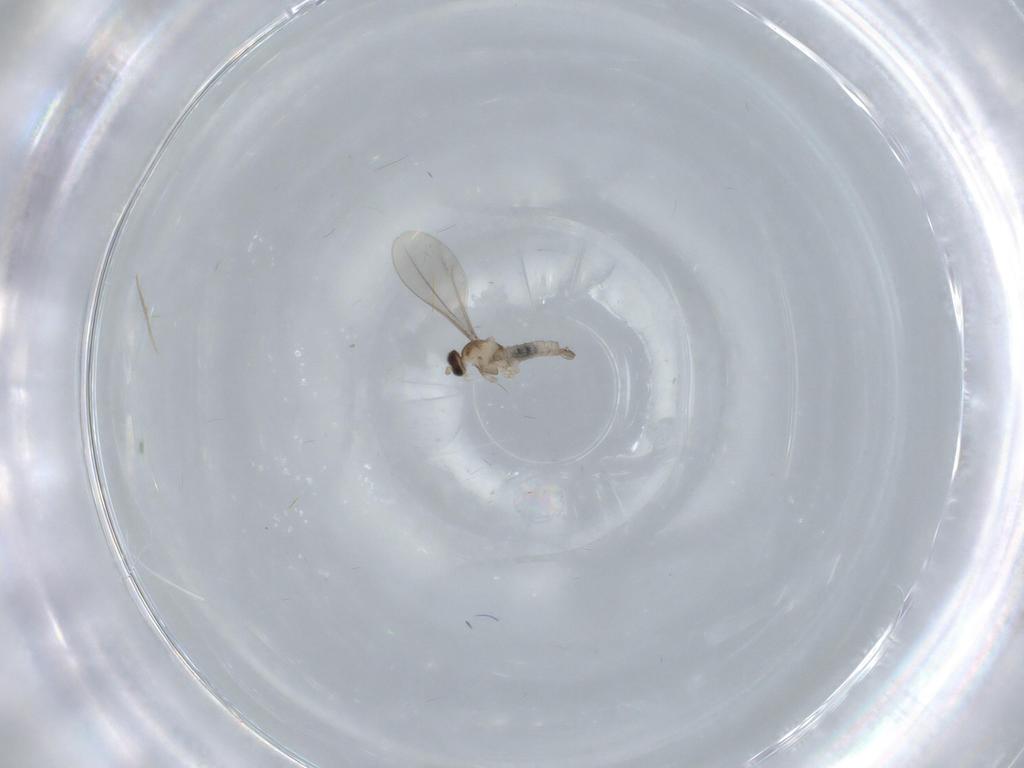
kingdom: Animalia
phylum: Arthropoda
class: Insecta
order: Diptera
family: Cecidomyiidae
